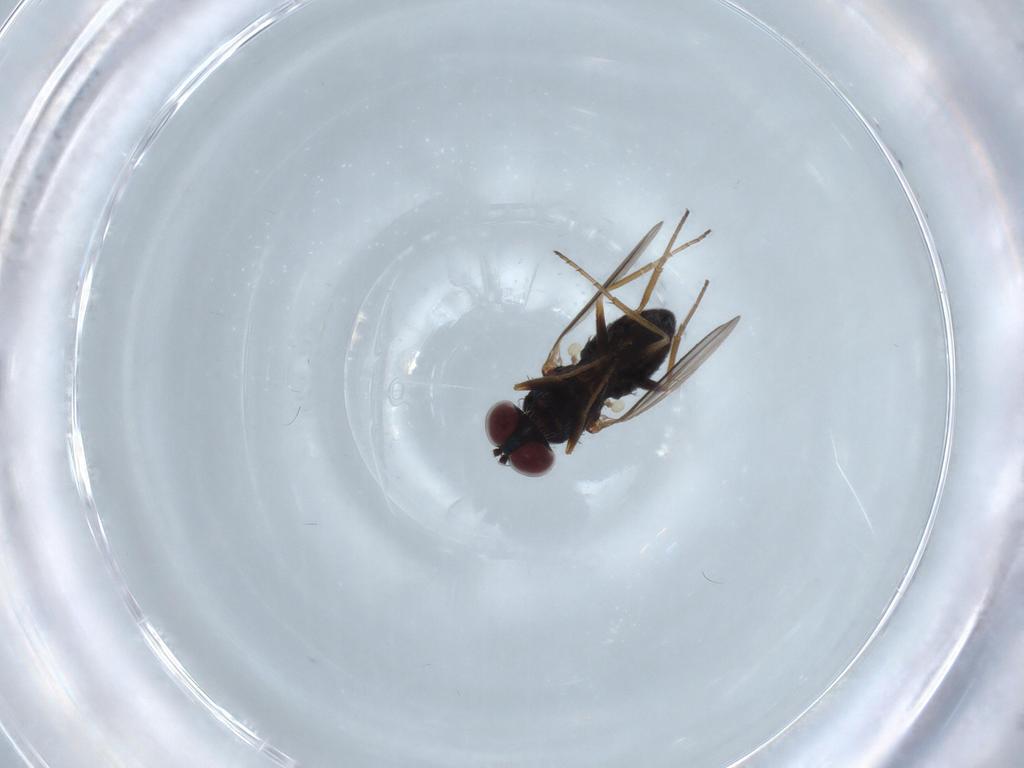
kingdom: Animalia
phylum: Arthropoda
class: Insecta
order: Diptera
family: Dolichopodidae
